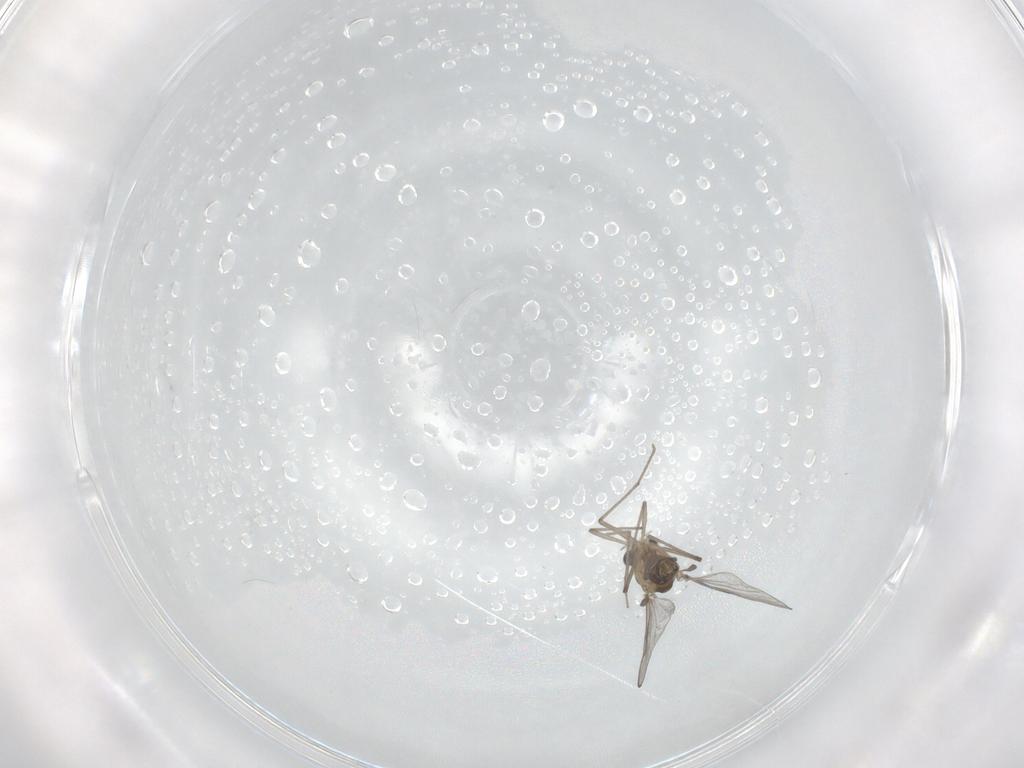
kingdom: Animalia
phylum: Arthropoda
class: Insecta
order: Diptera
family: Chironomidae
